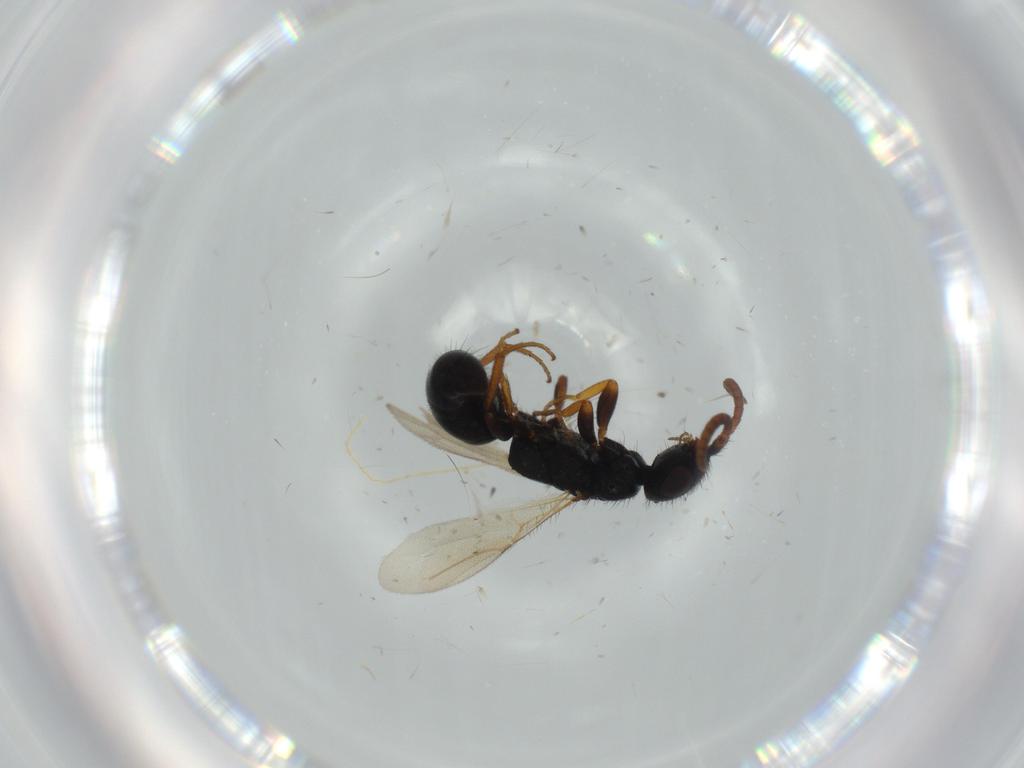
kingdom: Animalia
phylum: Arthropoda
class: Insecta
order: Hymenoptera
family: Bethylidae
